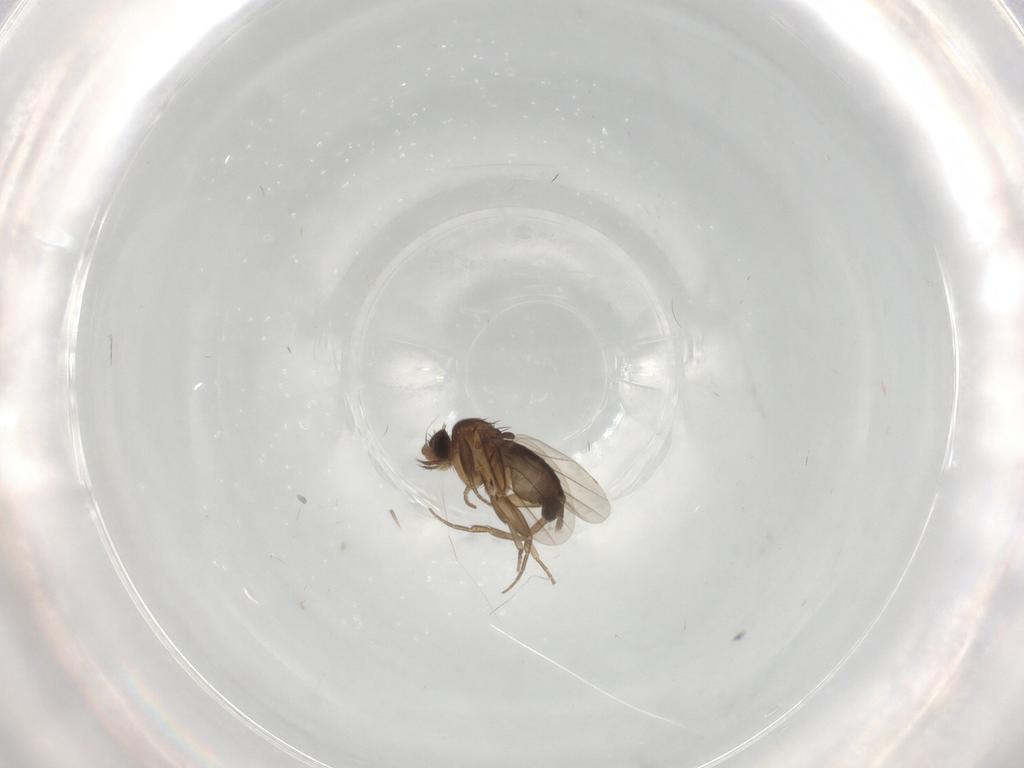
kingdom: Animalia
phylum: Arthropoda
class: Insecta
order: Diptera
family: Phoridae
